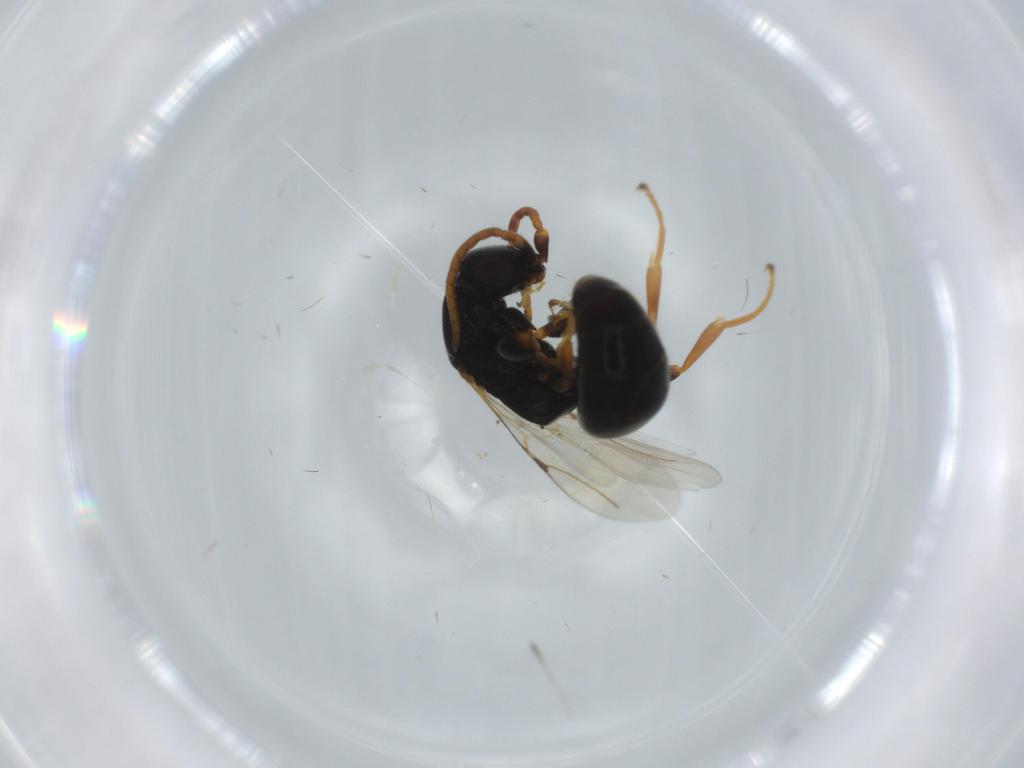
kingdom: Animalia
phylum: Arthropoda
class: Insecta
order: Hymenoptera
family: Bethylidae
